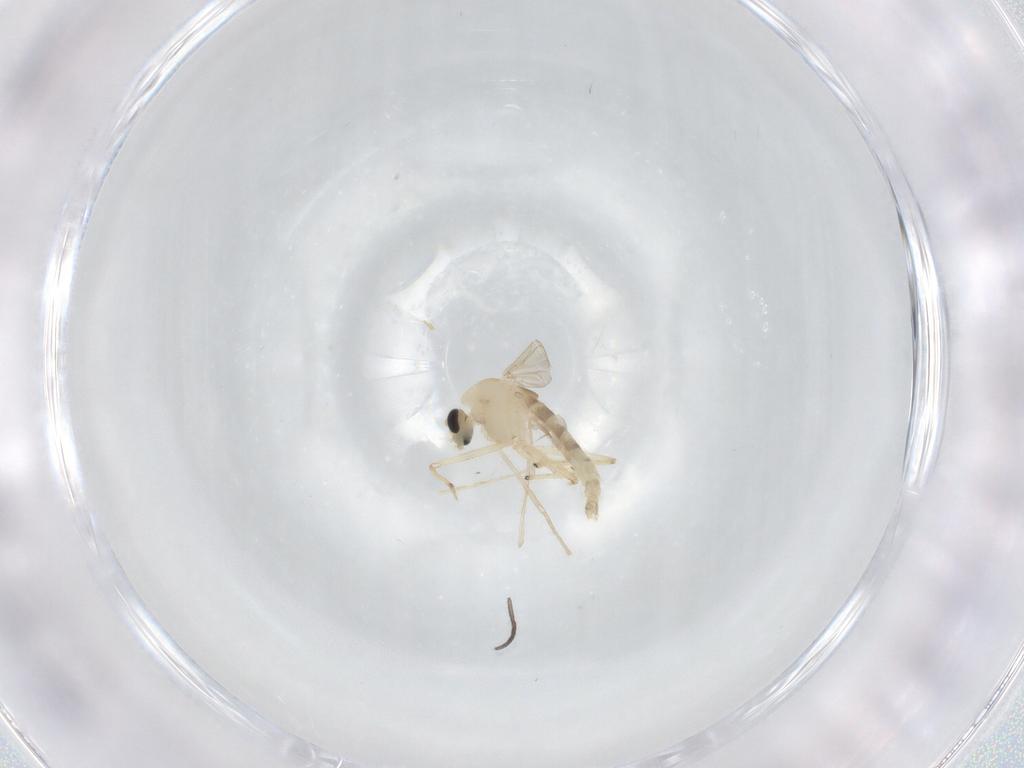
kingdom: Animalia
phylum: Arthropoda
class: Insecta
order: Diptera
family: Chironomidae
